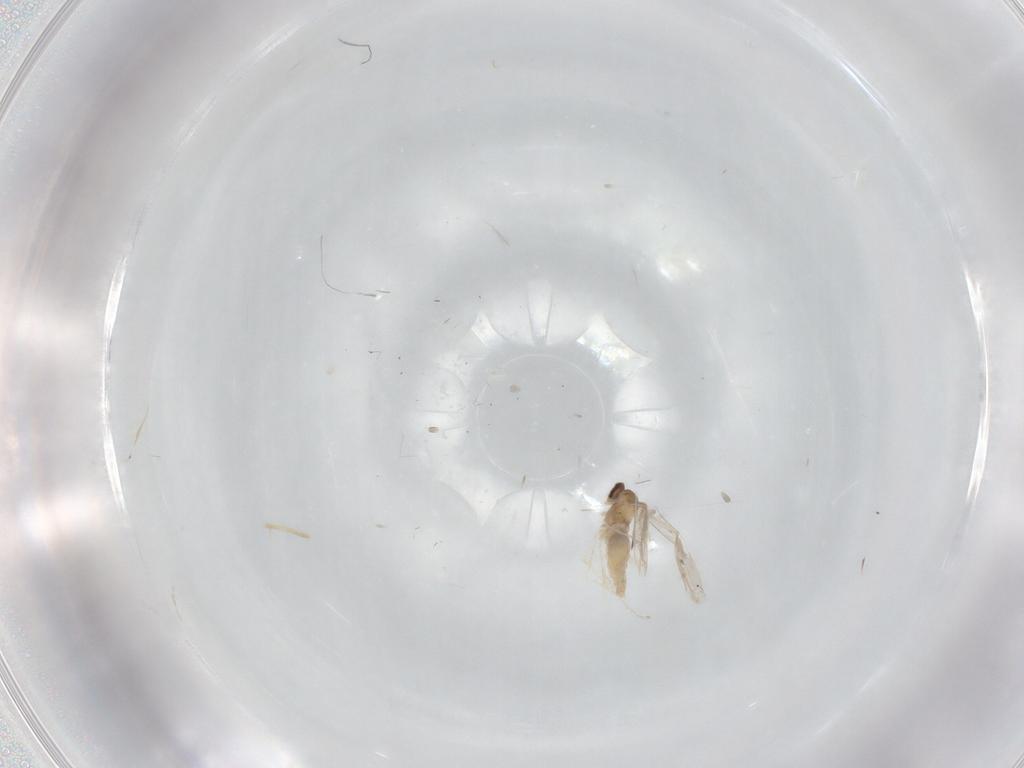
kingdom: Animalia
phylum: Arthropoda
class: Insecta
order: Diptera
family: Cecidomyiidae
